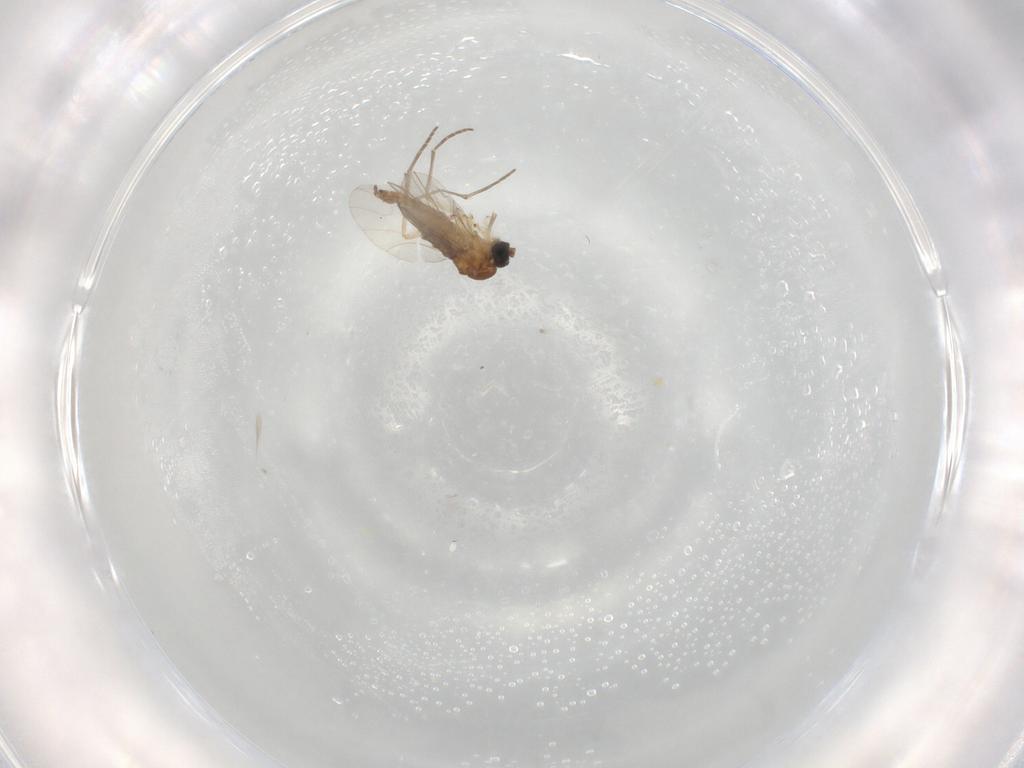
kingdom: Animalia
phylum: Arthropoda
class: Insecta
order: Diptera
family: Sciaridae
